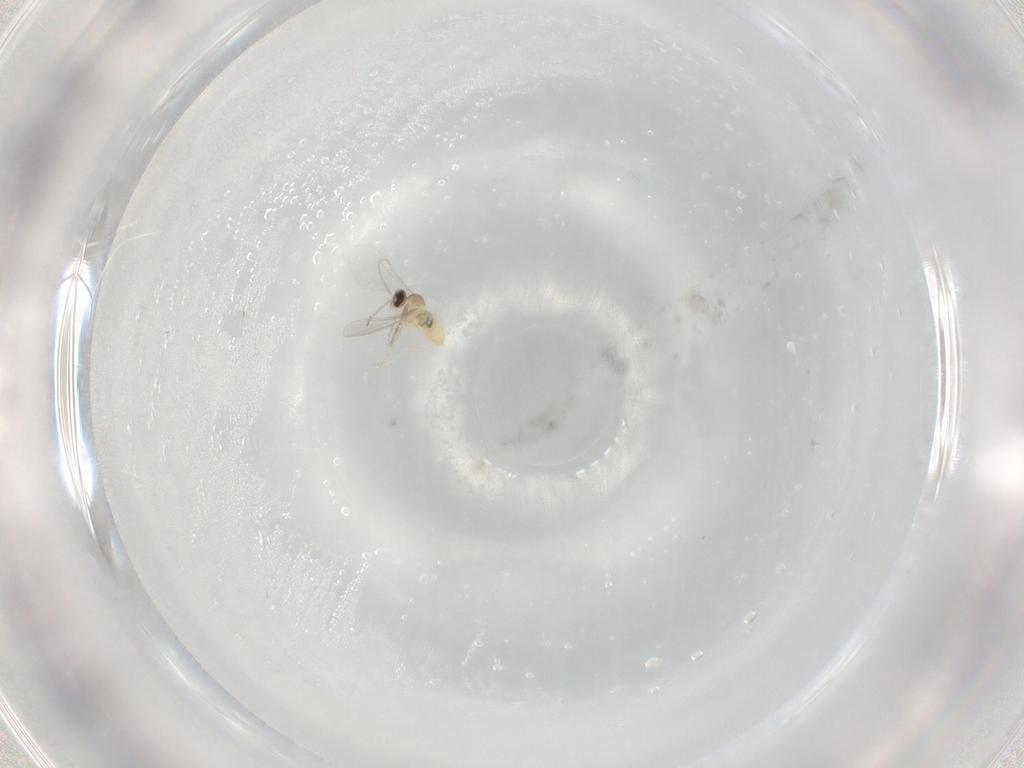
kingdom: Animalia
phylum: Arthropoda
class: Insecta
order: Diptera
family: Cecidomyiidae
